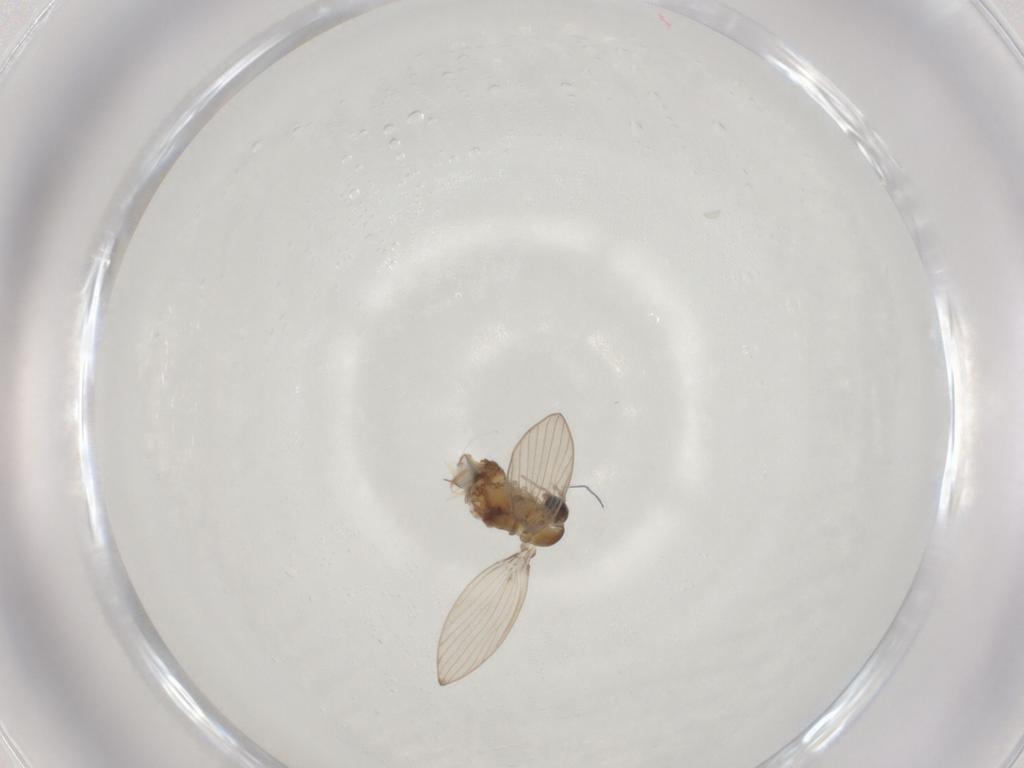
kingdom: Animalia
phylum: Arthropoda
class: Insecta
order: Diptera
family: Psychodidae
